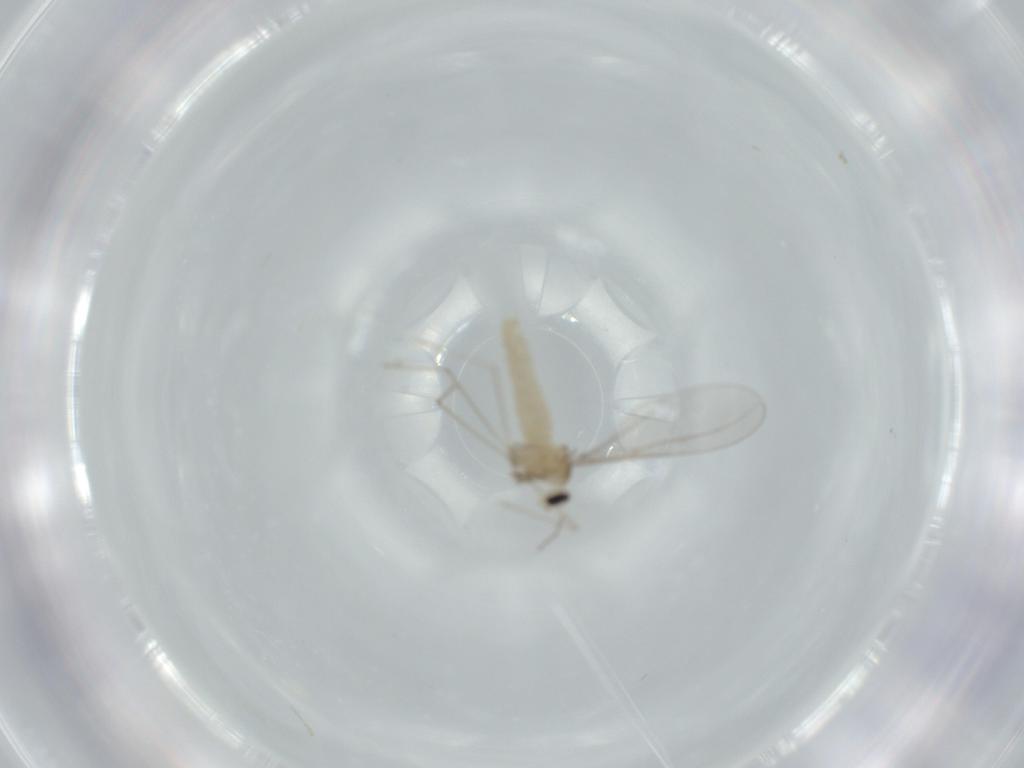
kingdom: Animalia
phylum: Arthropoda
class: Insecta
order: Diptera
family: Cecidomyiidae
